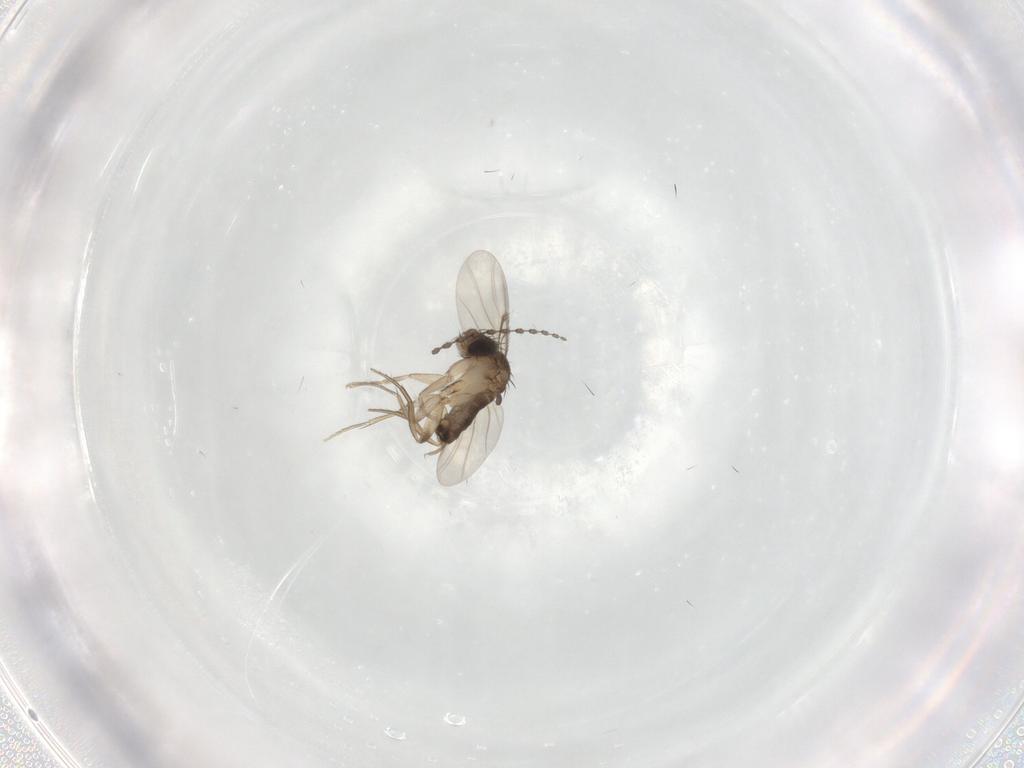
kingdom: Animalia
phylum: Arthropoda
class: Insecta
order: Diptera
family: Phoridae
